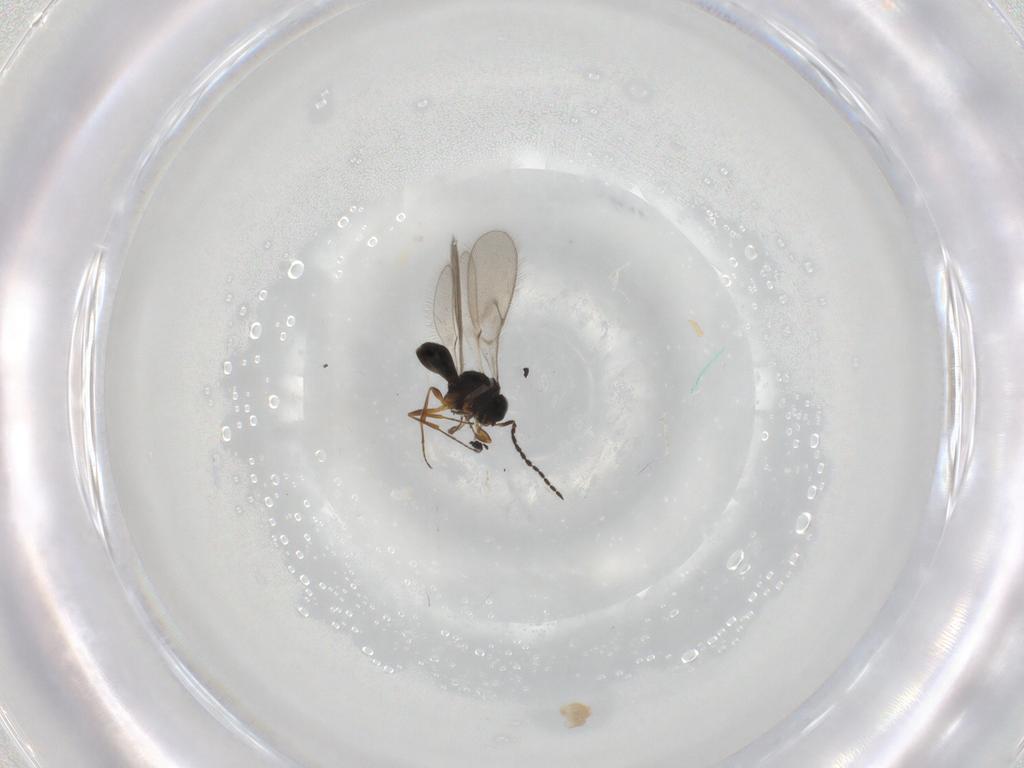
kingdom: Animalia
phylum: Arthropoda
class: Insecta
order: Hymenoptera
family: Scelionidae
